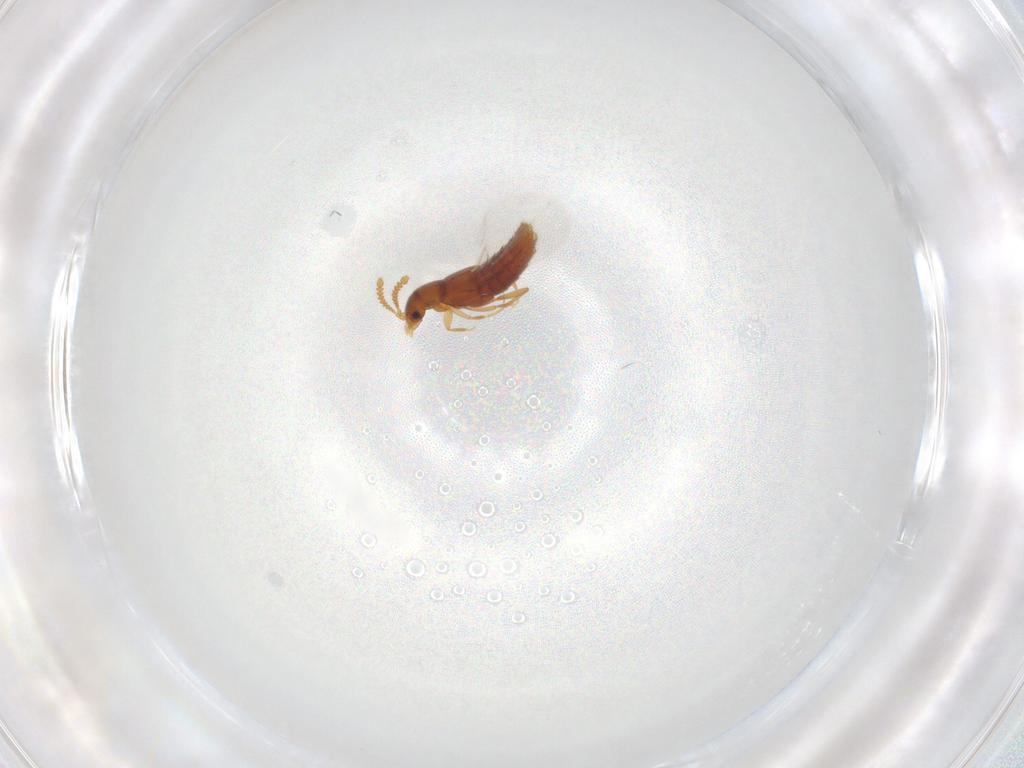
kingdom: Animalia
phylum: Arthropoda
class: Insecta
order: Coleoptera
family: Staphylinidae
